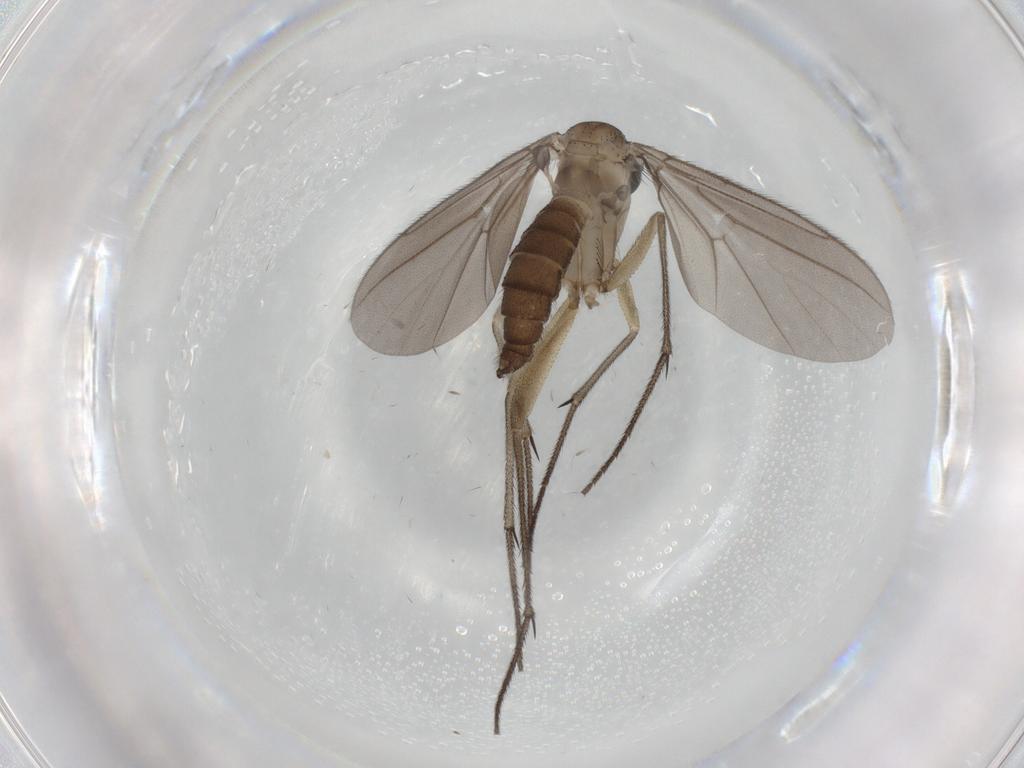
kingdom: Animalia
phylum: Arthropoda
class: Insecta
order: Diptera
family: Diadocidiidae
